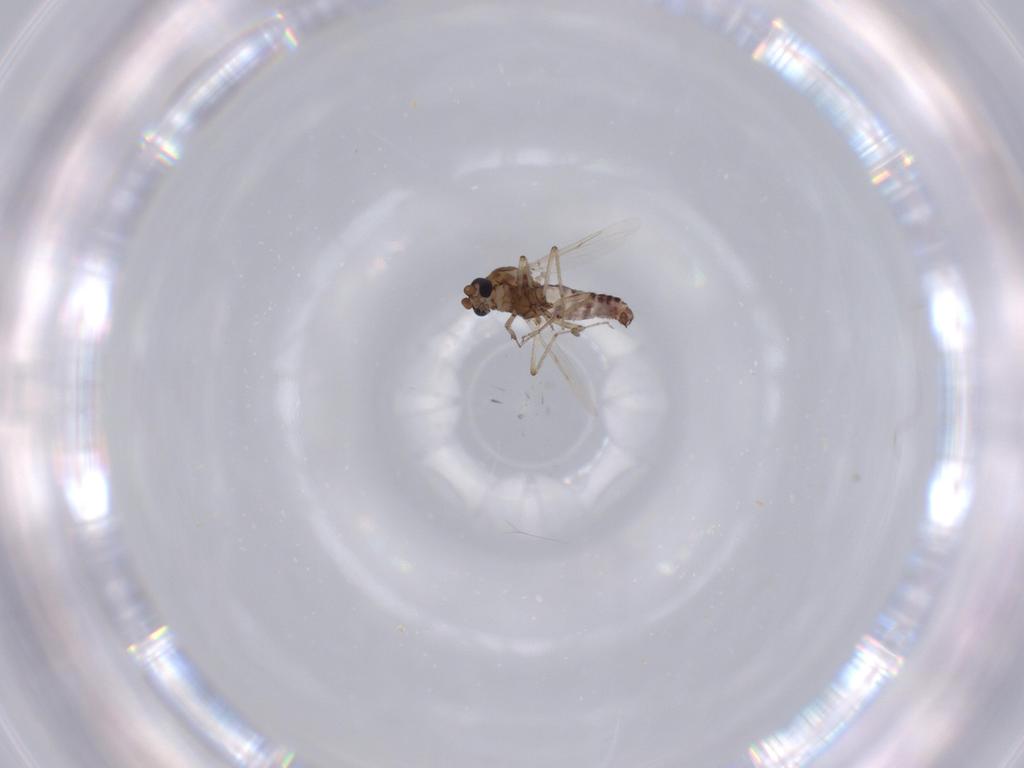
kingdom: Animalia
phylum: Arthropoda
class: Insecta
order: Diptera
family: Ceratopogonidae
